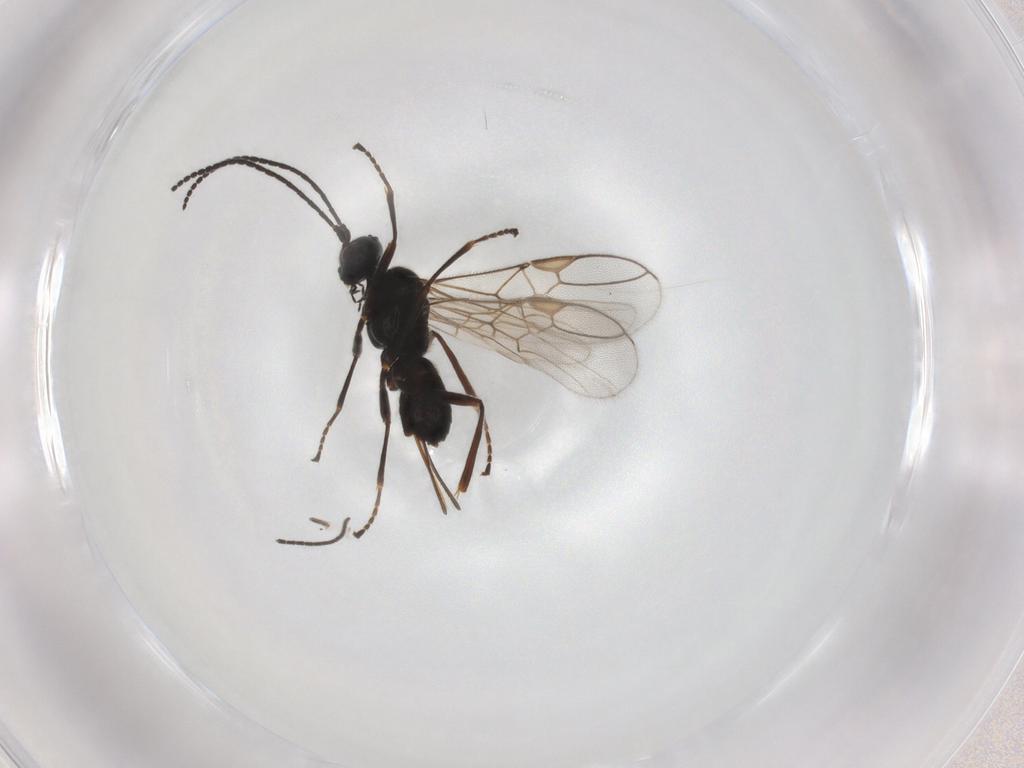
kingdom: Animalia
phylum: Arthropoda
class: Insecta
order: Hymenoptera
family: Braconidae
